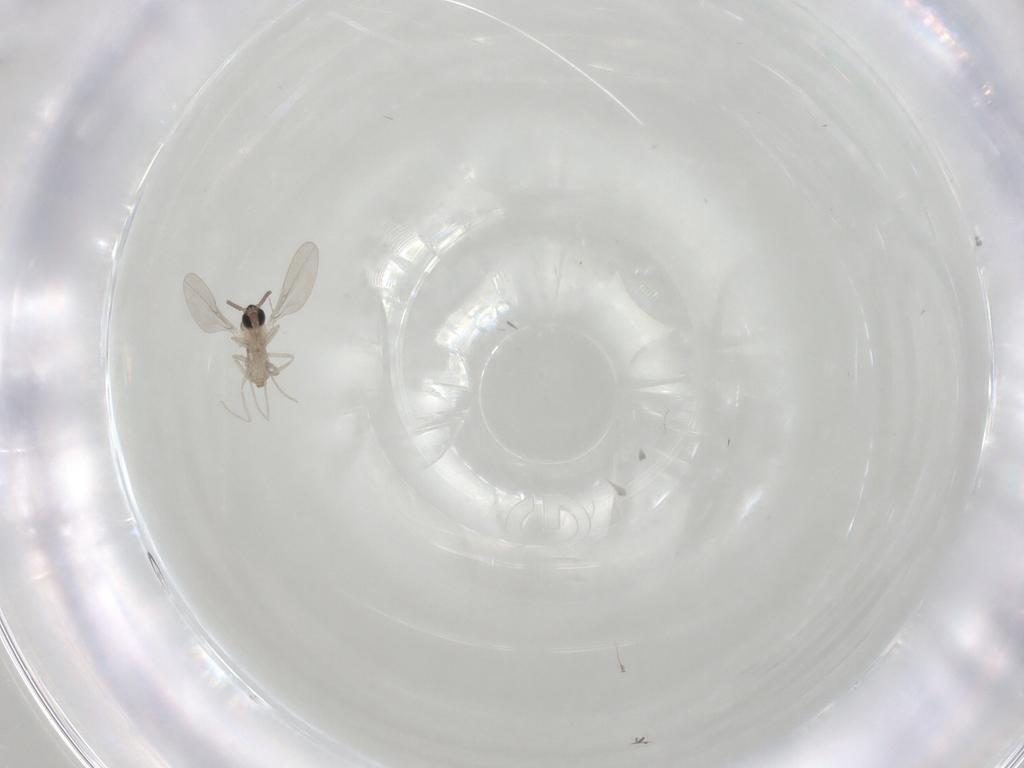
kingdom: Animalia
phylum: Arthropoda
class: Insecta
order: Diptera
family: Cecidomyiidae
